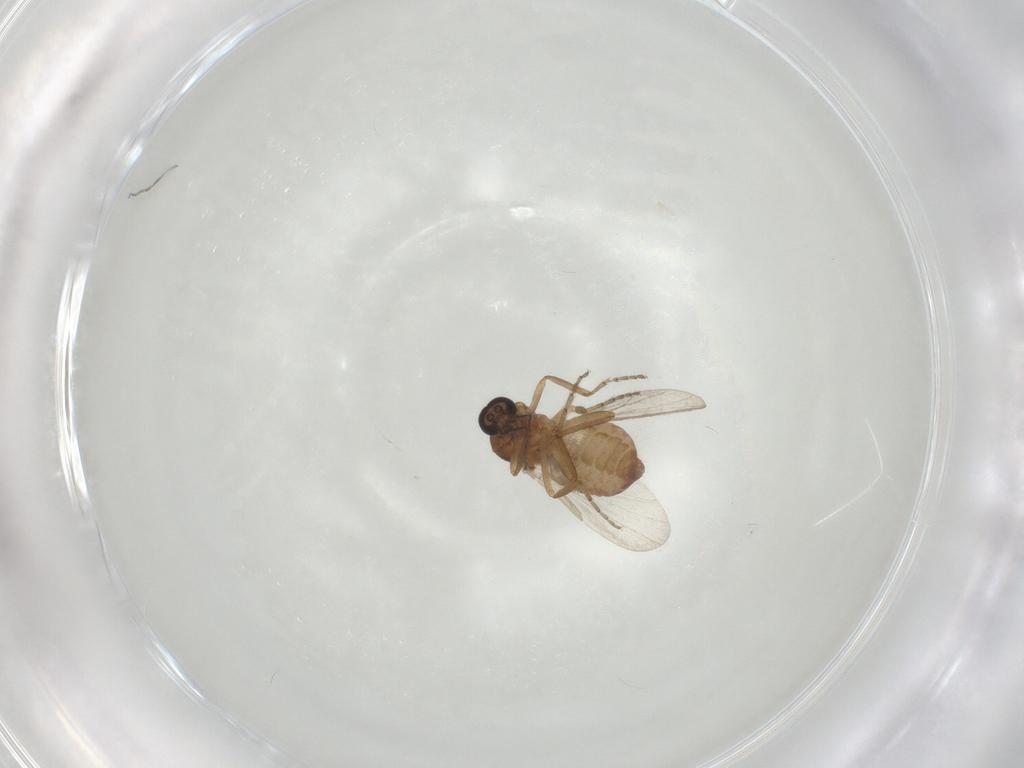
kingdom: Animalia
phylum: Arthropoda
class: Insecta
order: Diptera
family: Ceratopogonidae
